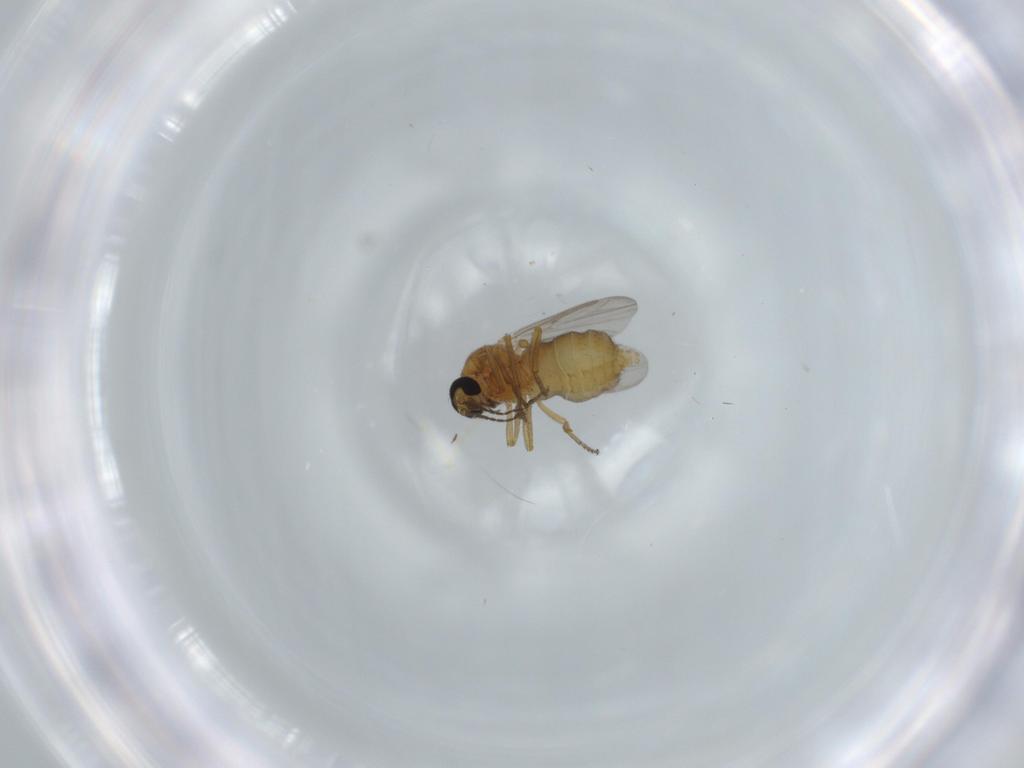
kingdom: Animalia
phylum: Arthropoda
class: Insecta
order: Diptera
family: Ceratopogonidae
